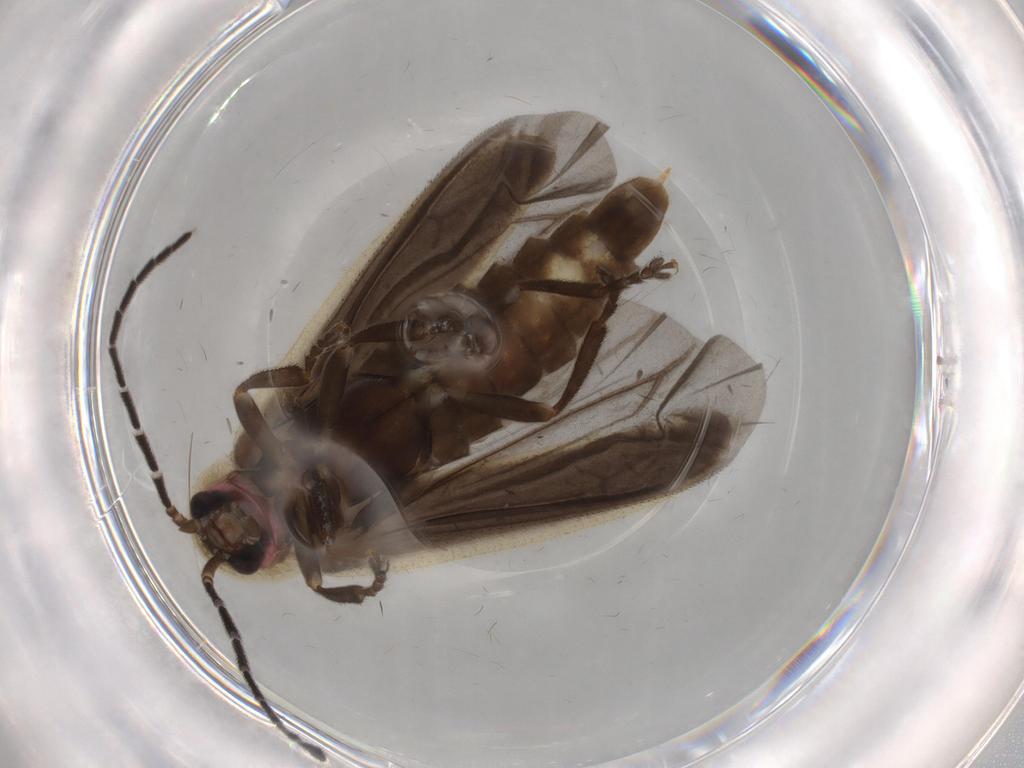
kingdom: Animalia
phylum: Arthropoda
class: Insecta
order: Coleoptera
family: Lampyridae
